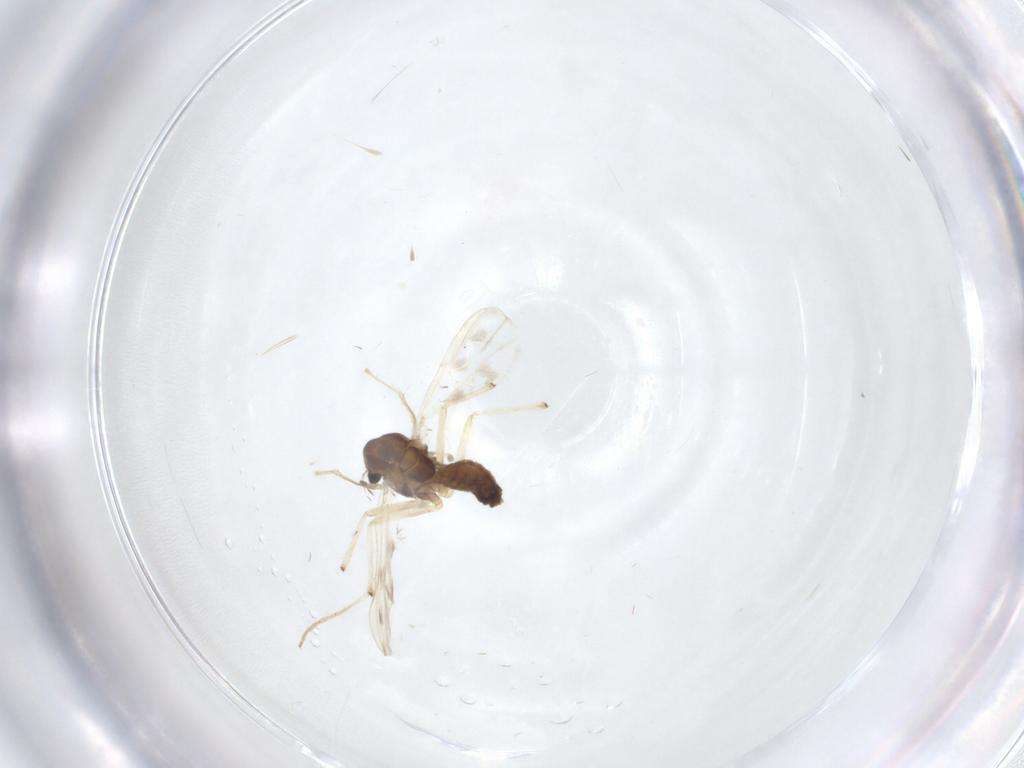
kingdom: Animalia
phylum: Arthropoda
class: Insecta
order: Diptera
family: Chironomidae
